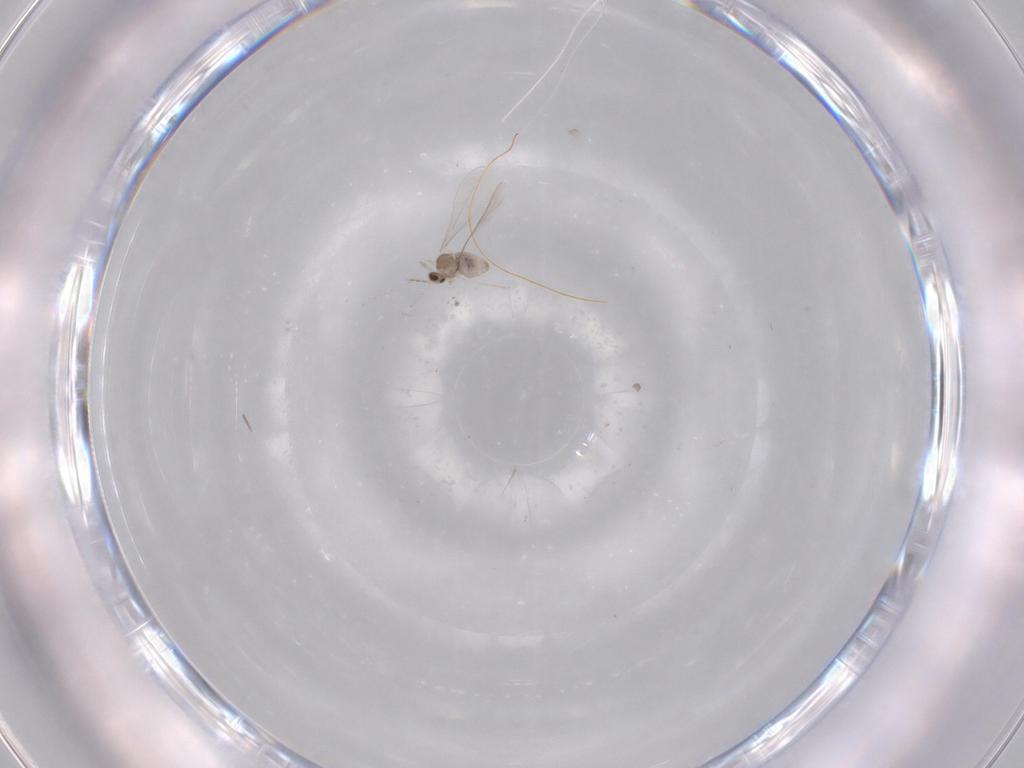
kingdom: Animalia
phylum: Arthropoda
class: Insecta
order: Diptera
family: Cecidomyiidae
